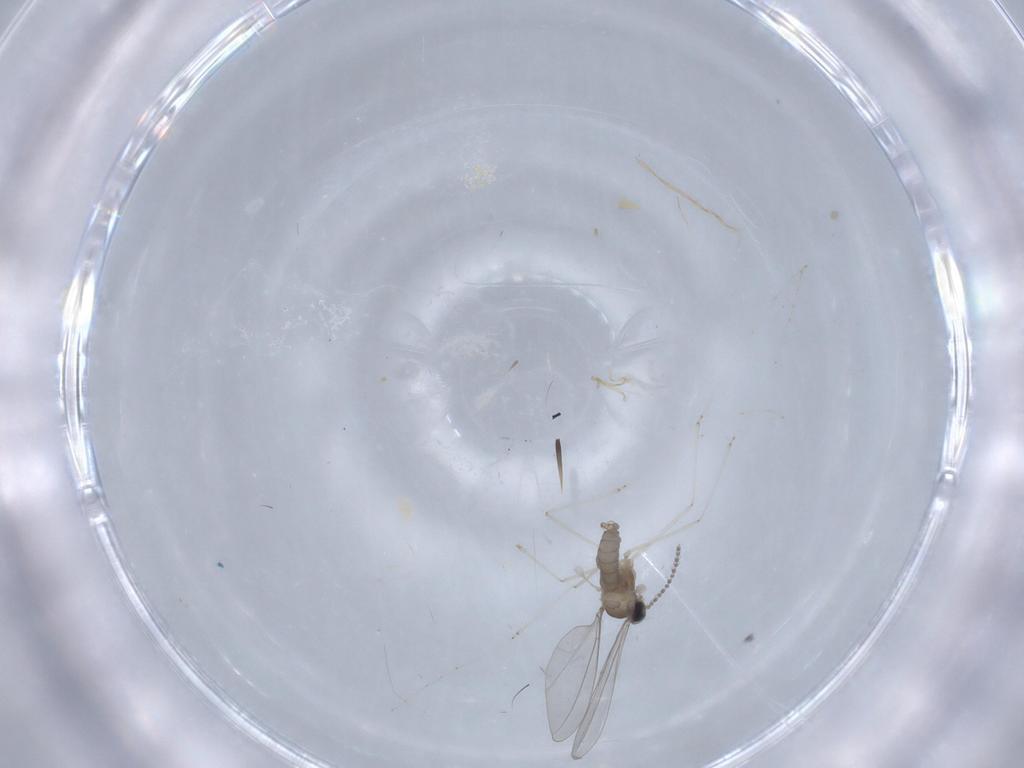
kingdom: Animalia
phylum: Arthropoda
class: Insecta
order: Diptera
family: Cecidomyiidae
